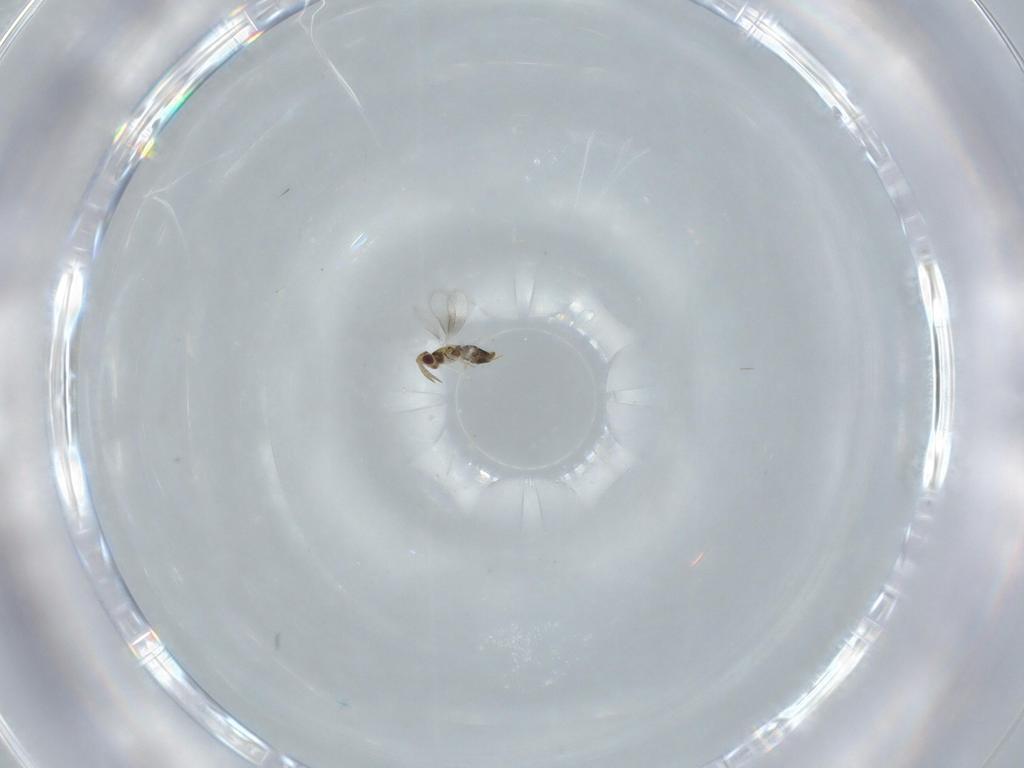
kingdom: Animalia
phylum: Arthropoda
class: Insecta
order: Hymenoptera
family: Aphelinidae
